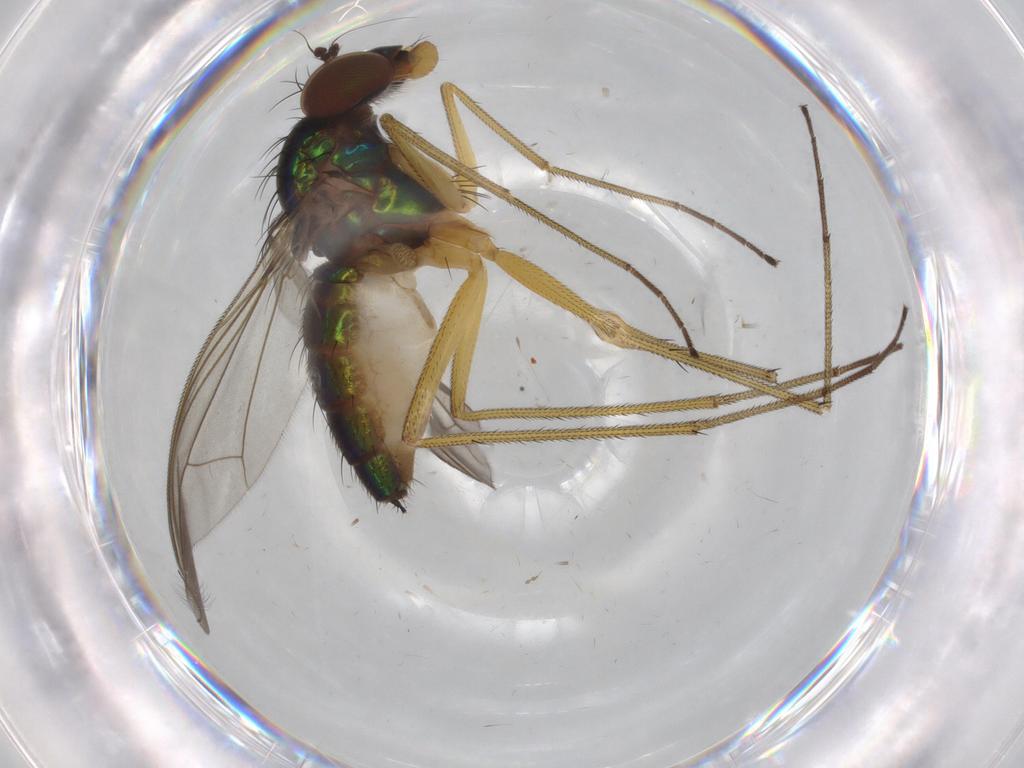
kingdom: Animalia
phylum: Arthropoda
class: Insecta
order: Diptera
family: Dolichopodidae
